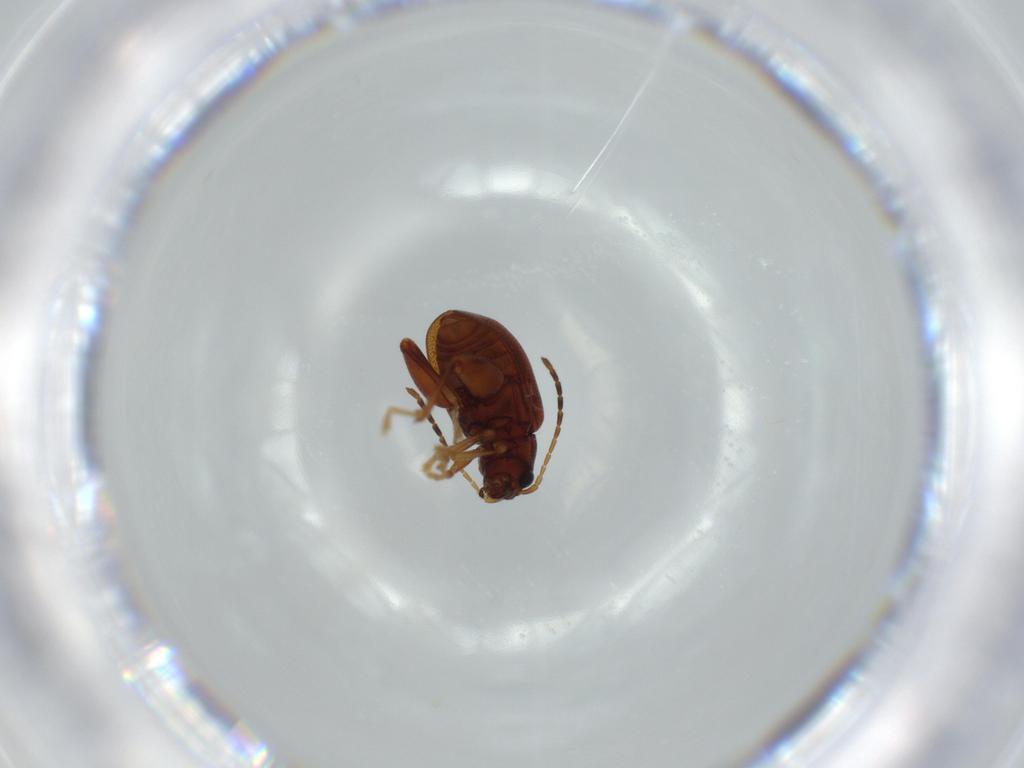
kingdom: Animalia
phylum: Arthropoda
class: Insecta
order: Coleoptera
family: Chrysomelidae
